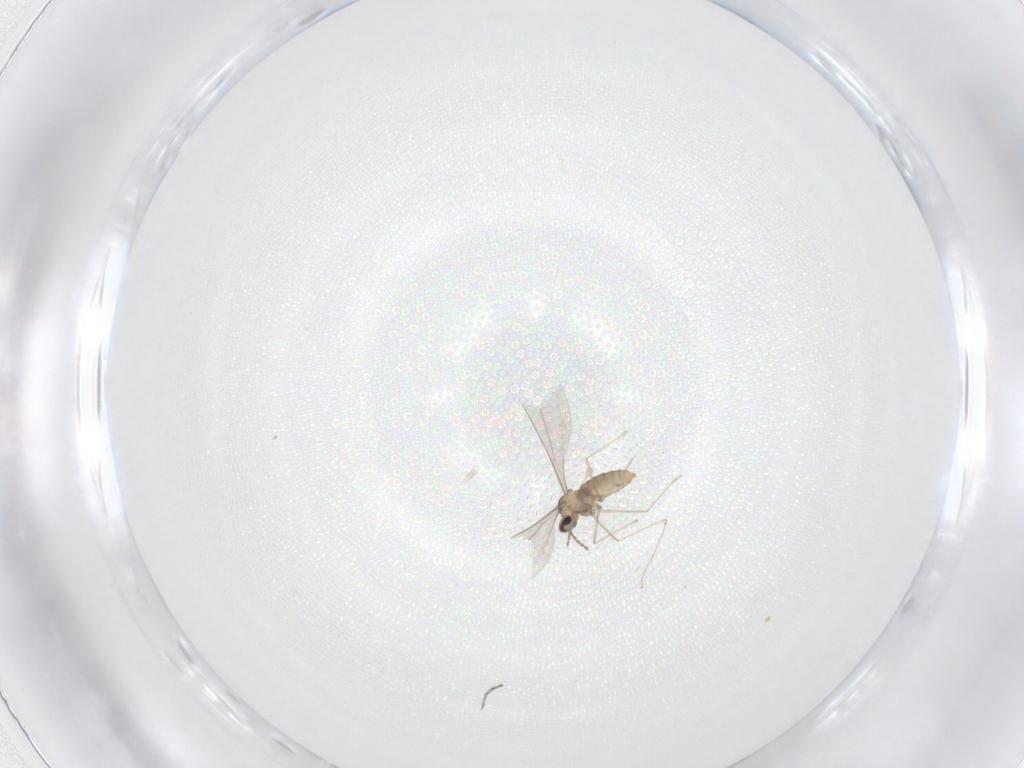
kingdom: Animalia
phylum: Arthropoda
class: Insecta
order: Diptera
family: Cecidomyiidae
